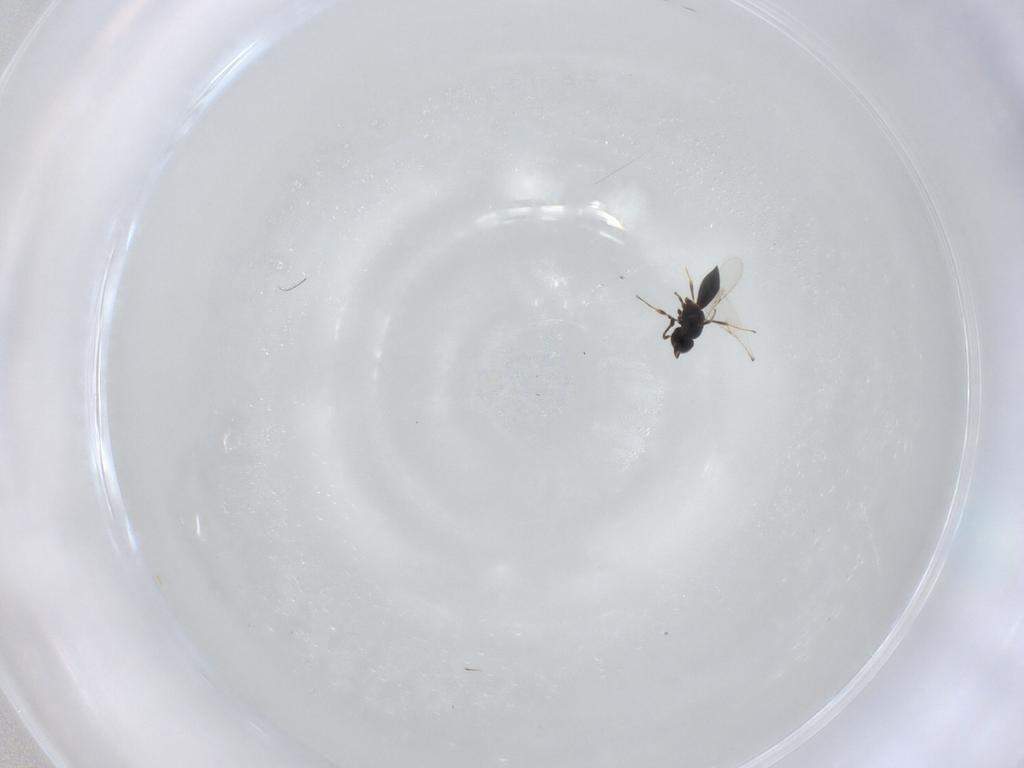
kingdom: Animalia
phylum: Arthropoda
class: Insecta
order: Hymenoptera
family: Scelionidae
